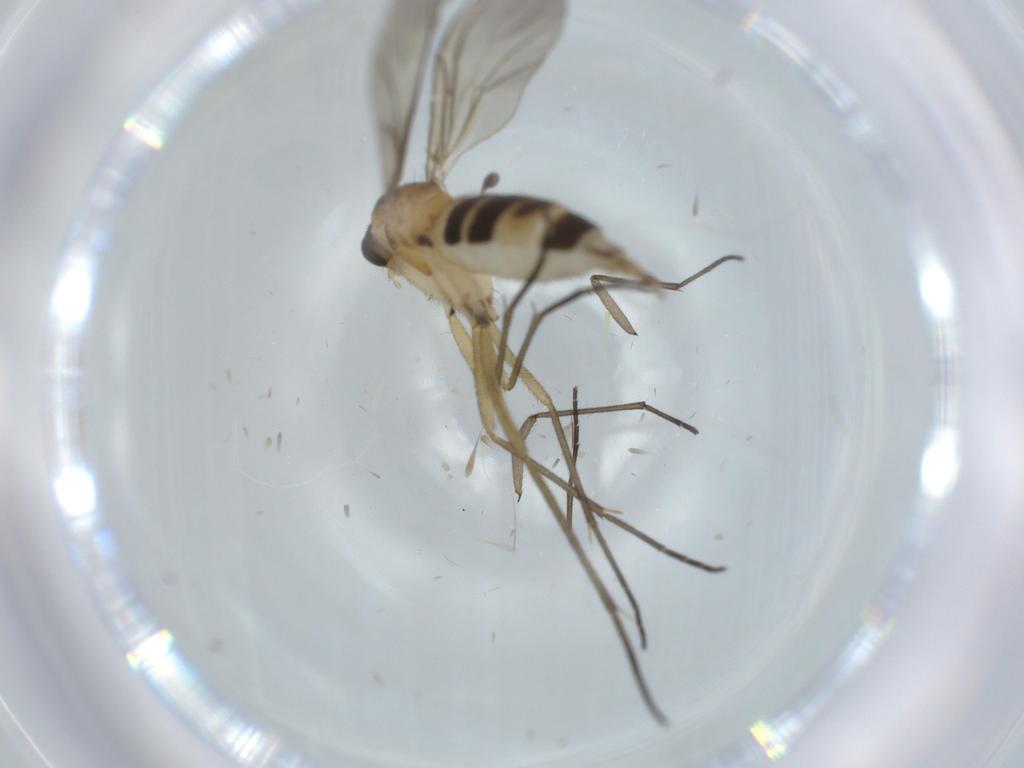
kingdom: Animalia
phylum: Arthropoda
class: Insecta
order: Diptera
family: Sciaridae
